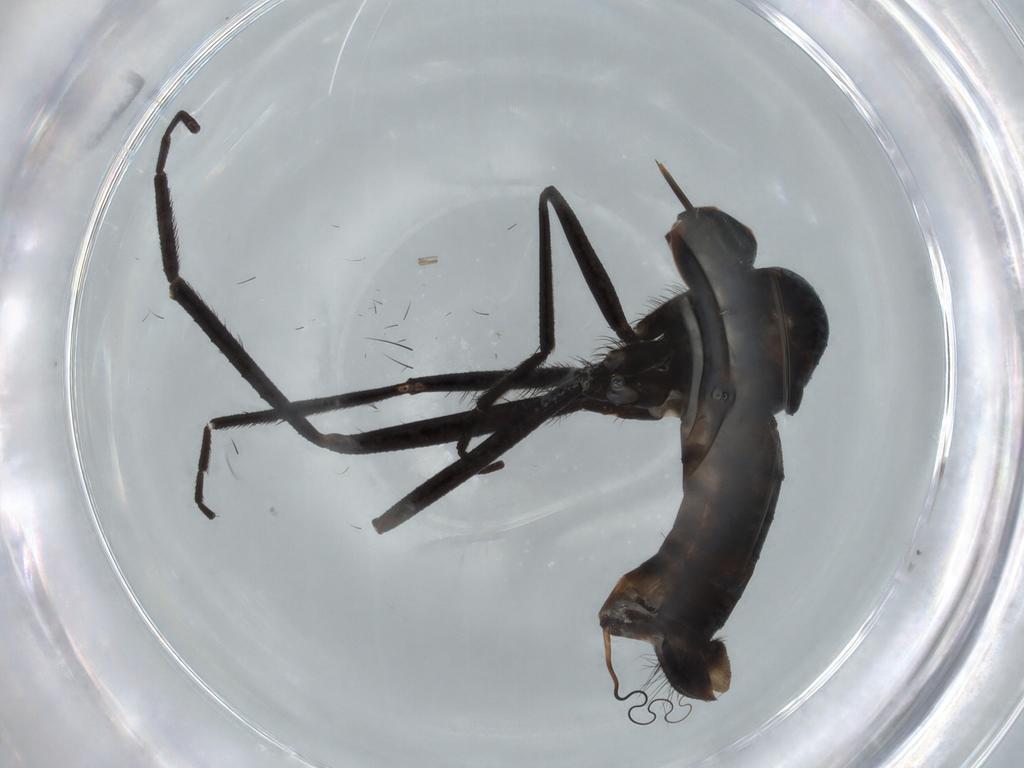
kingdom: Animalia
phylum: Arthropoda
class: Insecta
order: Diptera
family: Empididae
